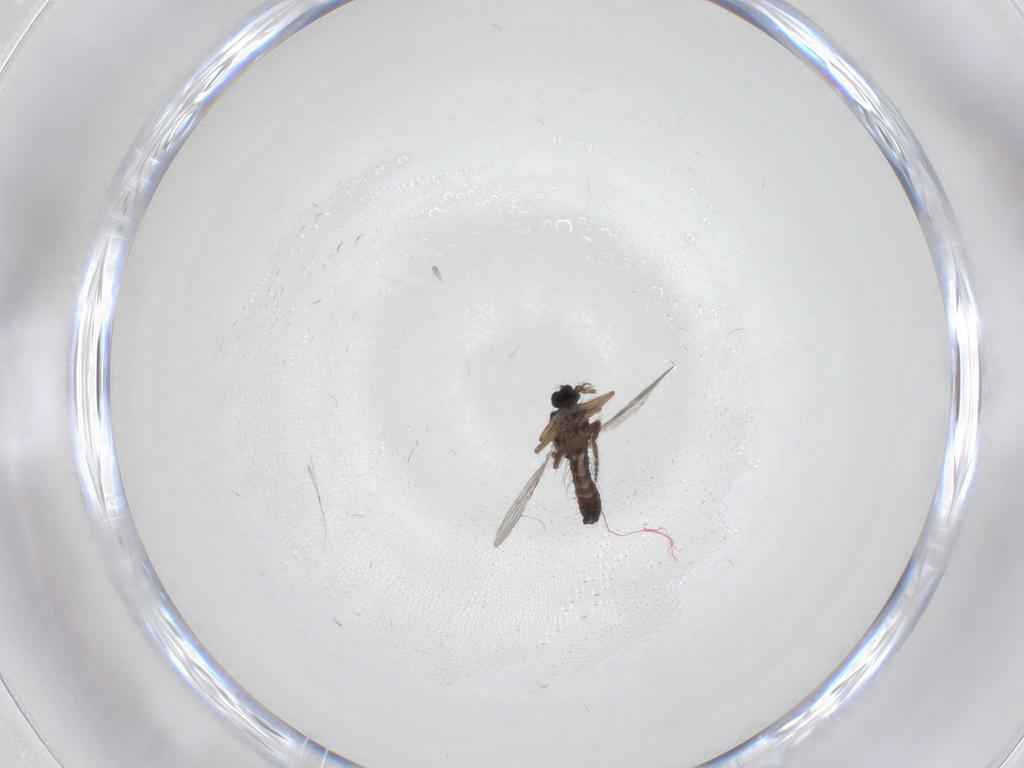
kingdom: Animalia
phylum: Arthropoda
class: Insecta
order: Diptera
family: Ceratopogonidae
